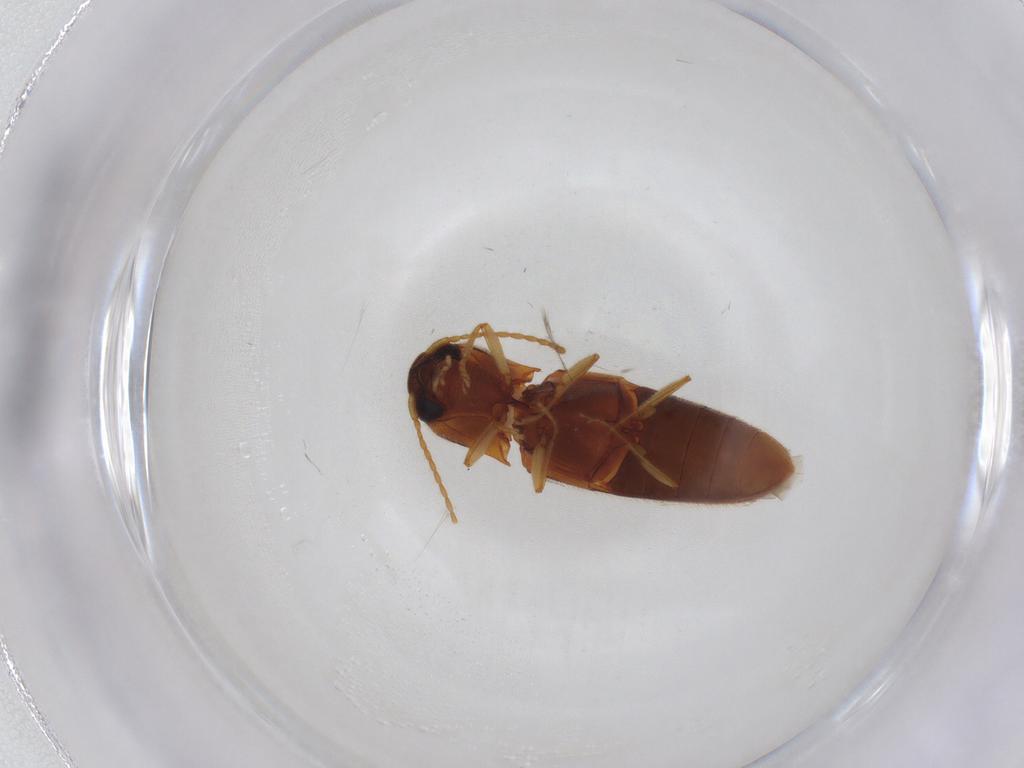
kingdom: Animalia
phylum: Arthropoda
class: Insecta
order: Coleoptera
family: Elateridae
